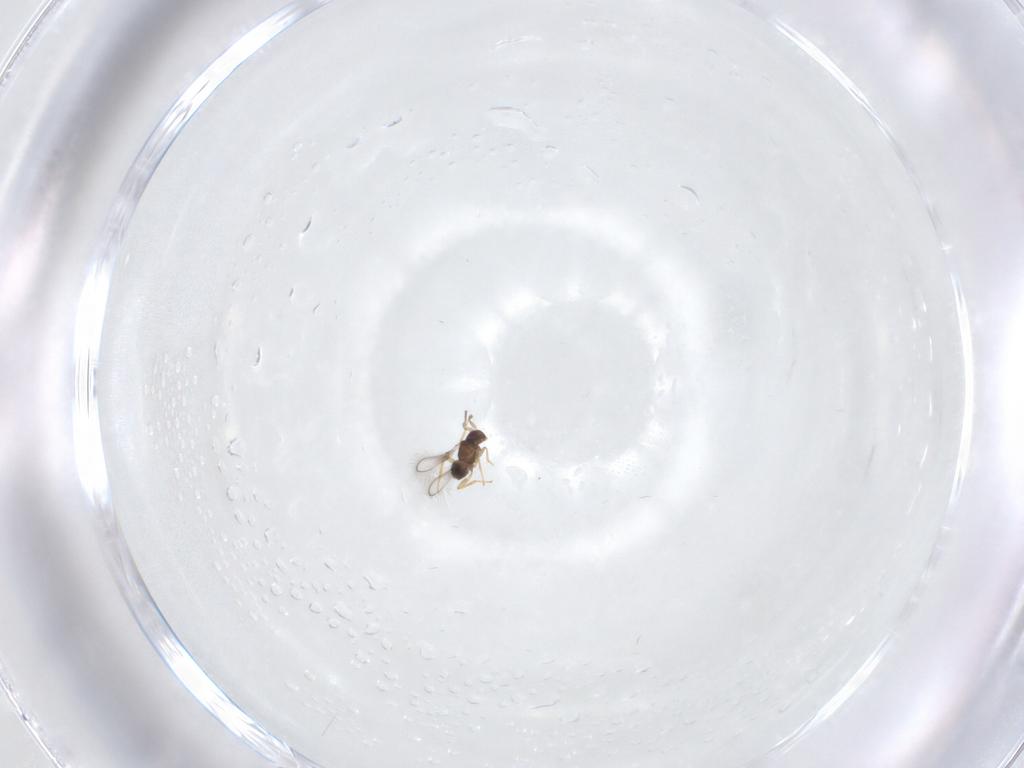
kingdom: Animalia
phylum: Arthropoda
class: Insecta
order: Hymenoptera
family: Mymaridae
